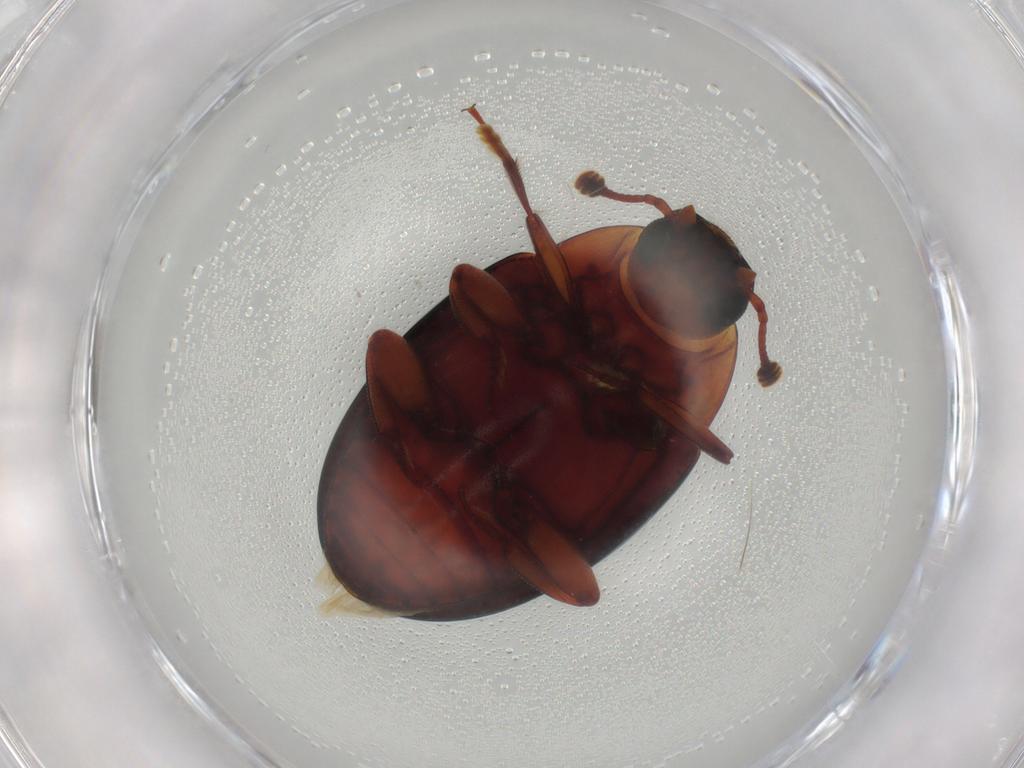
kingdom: Animalia
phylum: Arthropoda
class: Insecta
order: Coleoptera
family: Zopheridae
